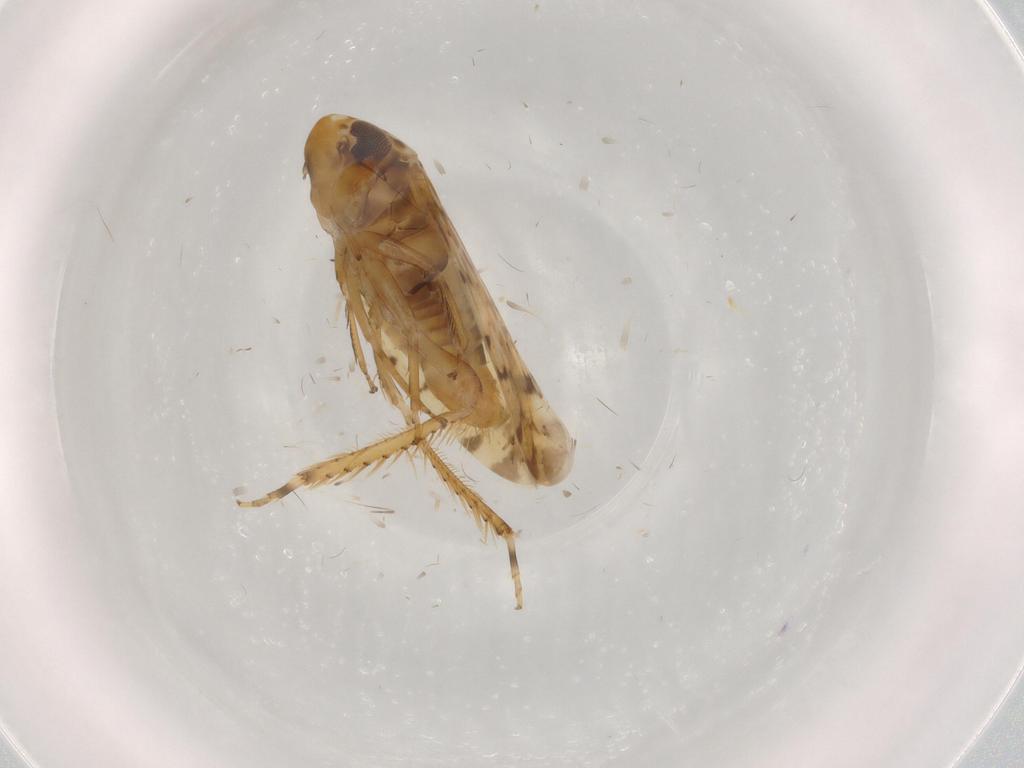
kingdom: Animalia
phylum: Arthropoda
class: Insecta
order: Hemiptera
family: Cicadellidae
